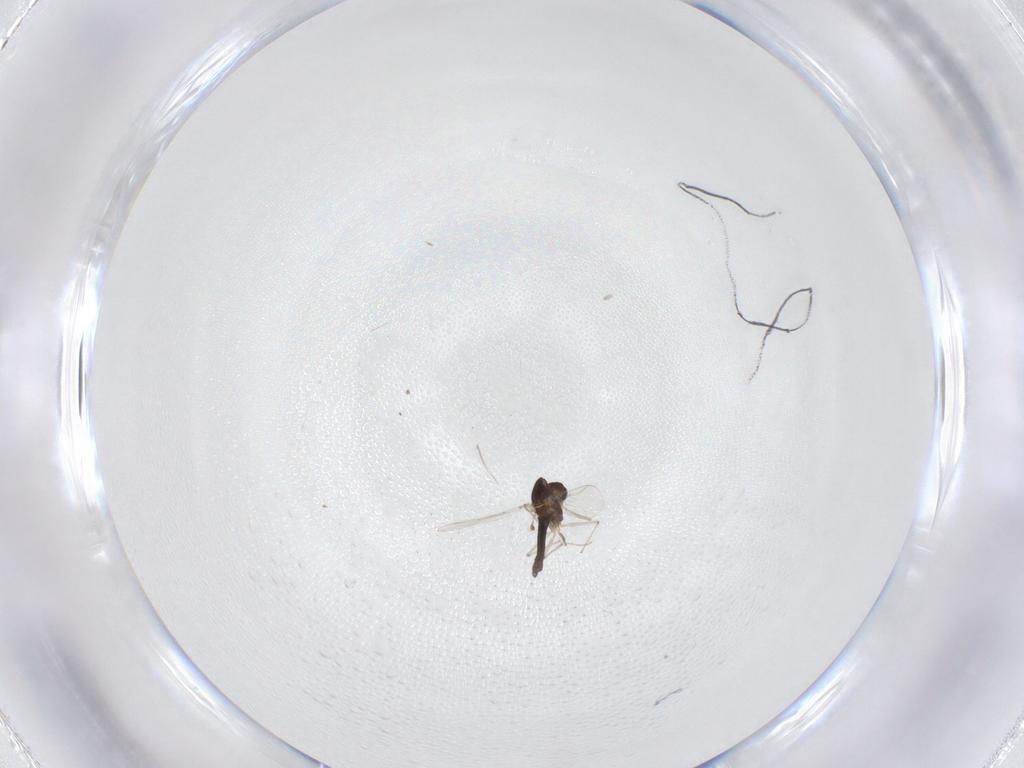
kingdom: Animalia
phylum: Arthropoda
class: Insecta
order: Diptera
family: Chironomidae
